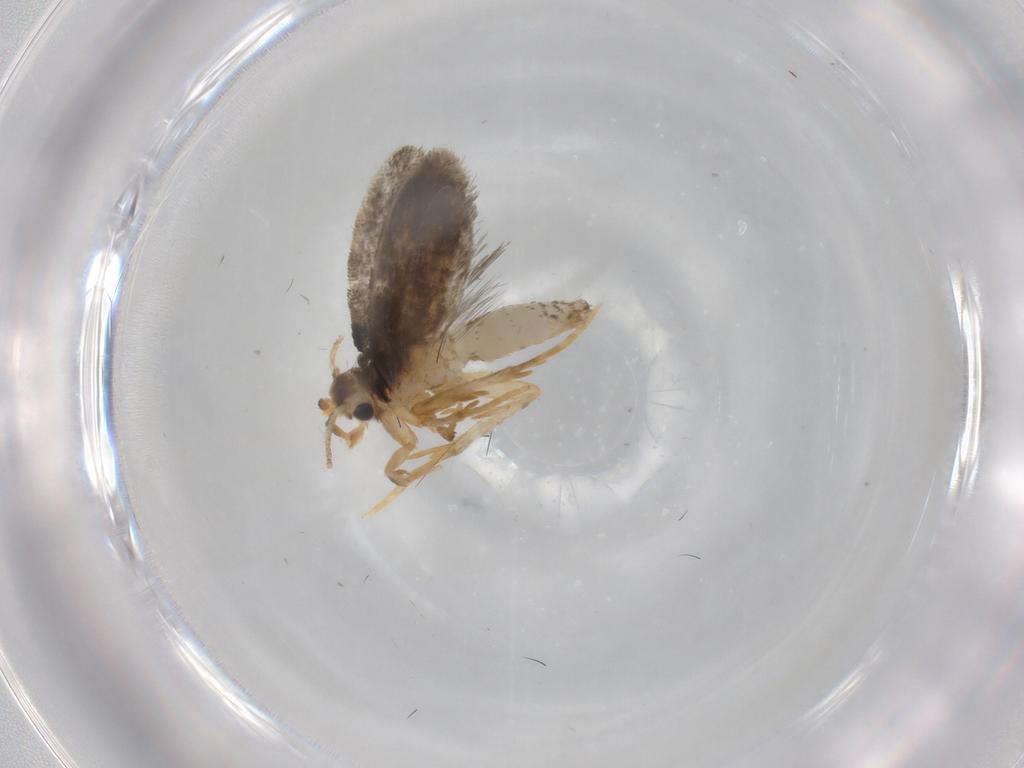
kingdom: Animalia
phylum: Arthropoda
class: Insecta
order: Lepidoptera
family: Psychidae
